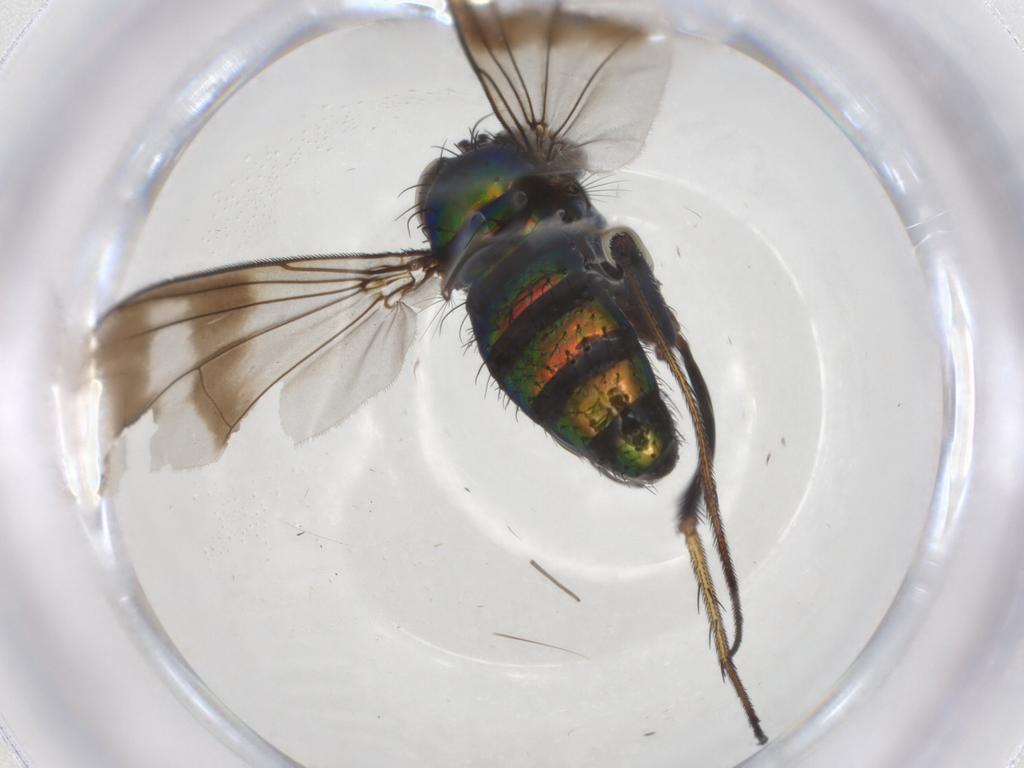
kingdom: Animalia
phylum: Arthropoda
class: Insecta
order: Diptera
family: Dolichopodidae
